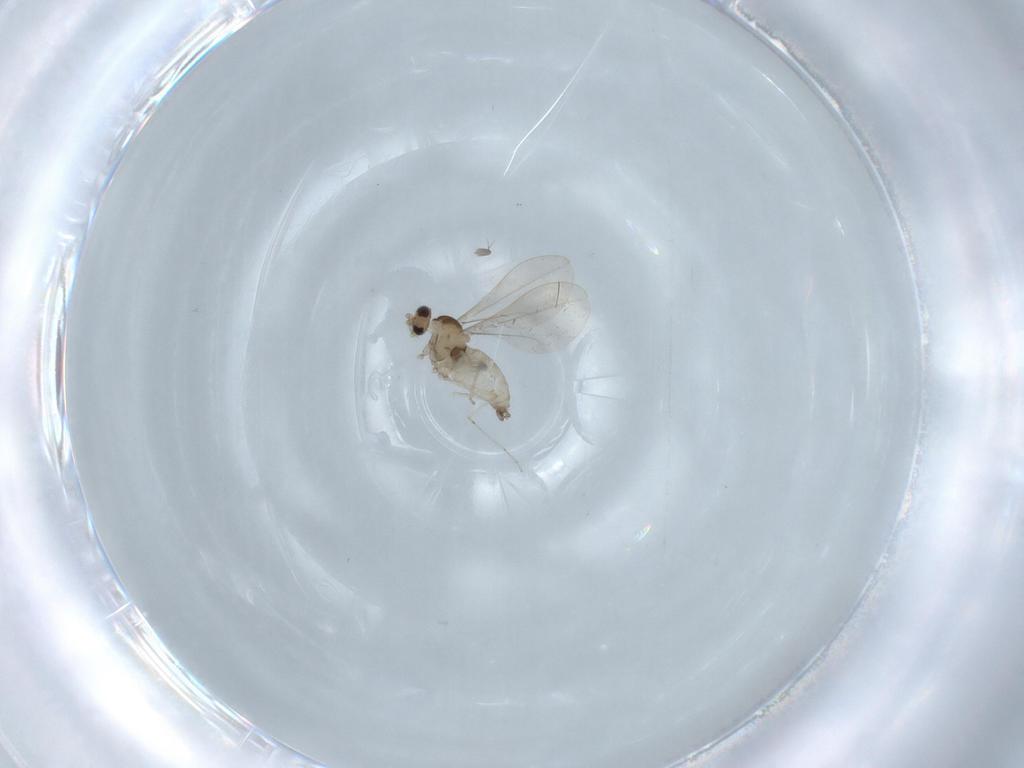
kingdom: Animalia
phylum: Arthropoda
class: Insecta
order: Diptera
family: Cecidomyiidae
